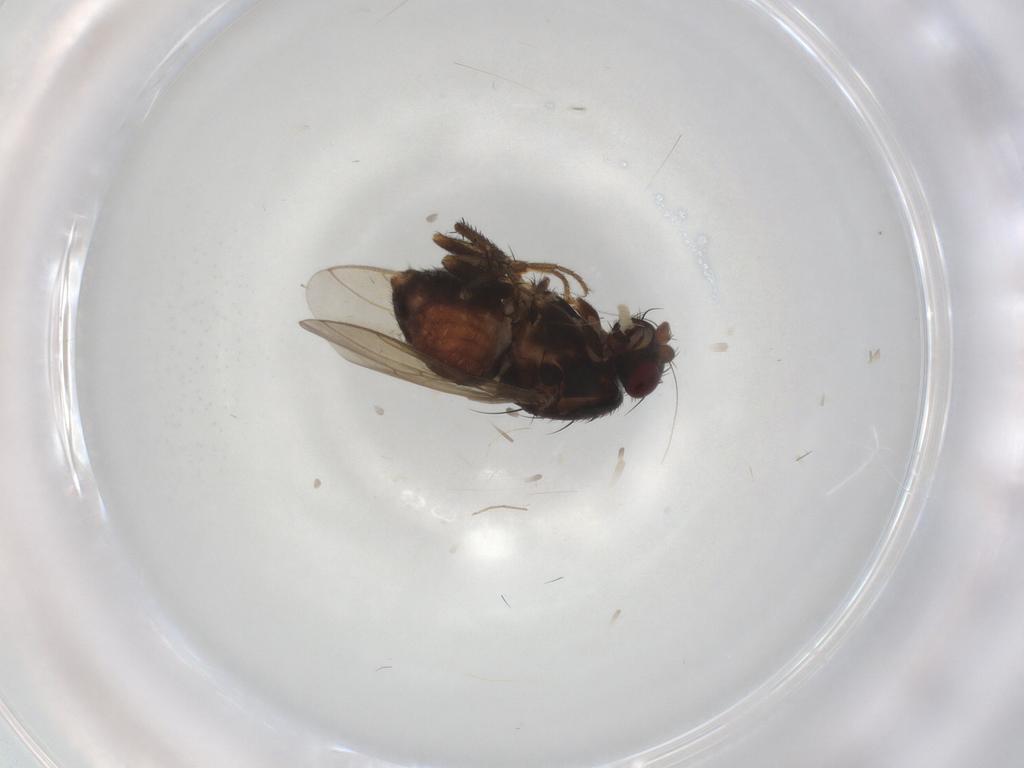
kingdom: Animalia
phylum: Arthropoda
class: Insecta
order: Diptera
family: Sphaeroceridae
